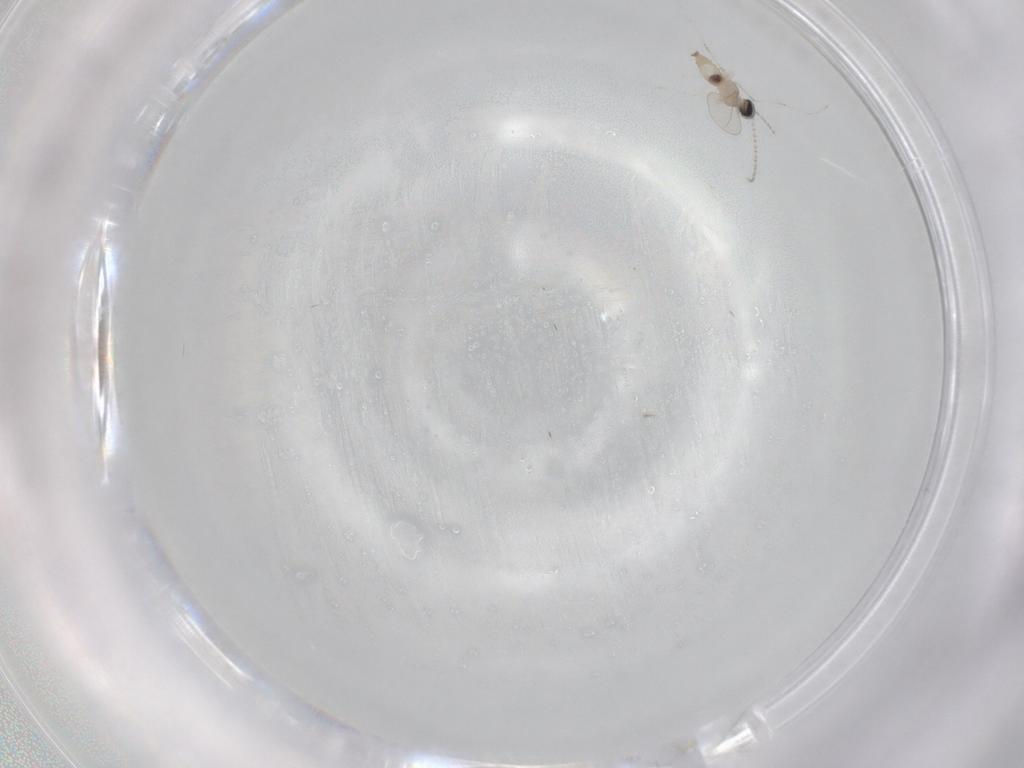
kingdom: Animalia
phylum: Arthropoda
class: Insecta
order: Diptera
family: Cecidomyiidae
